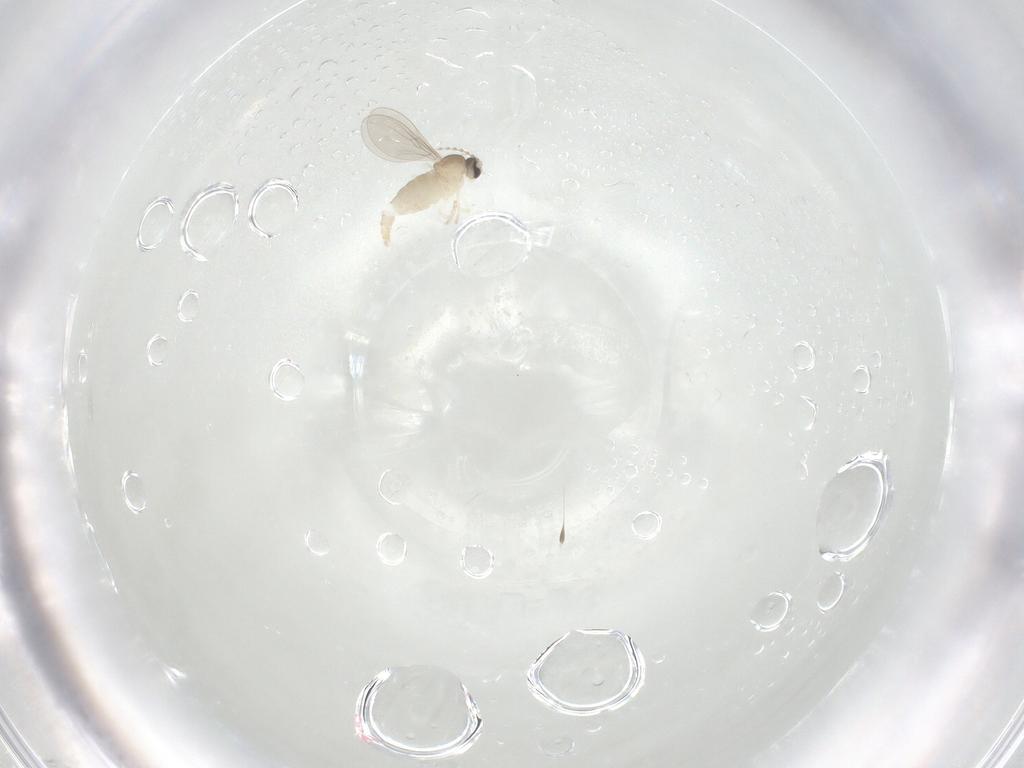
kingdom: Animalia
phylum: Arthropoda
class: Insecta
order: Diptera
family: Cecidomyiidae
